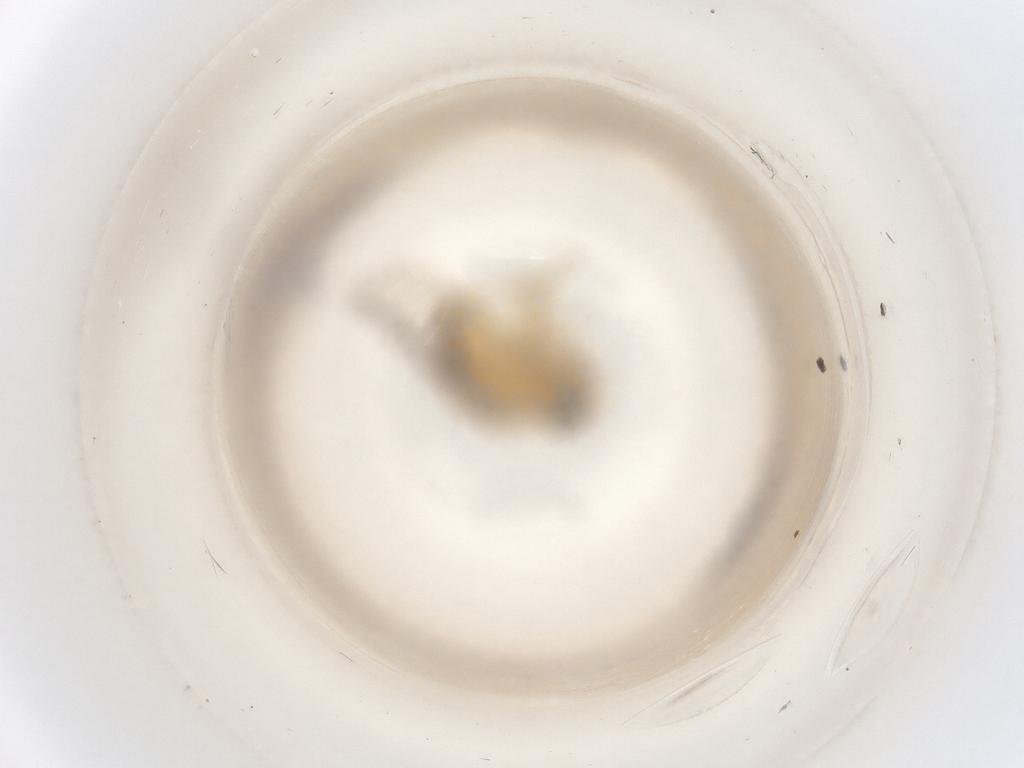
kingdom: Animalia
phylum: Arthropoda
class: Insecta
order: Diptera
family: Chloropidae
